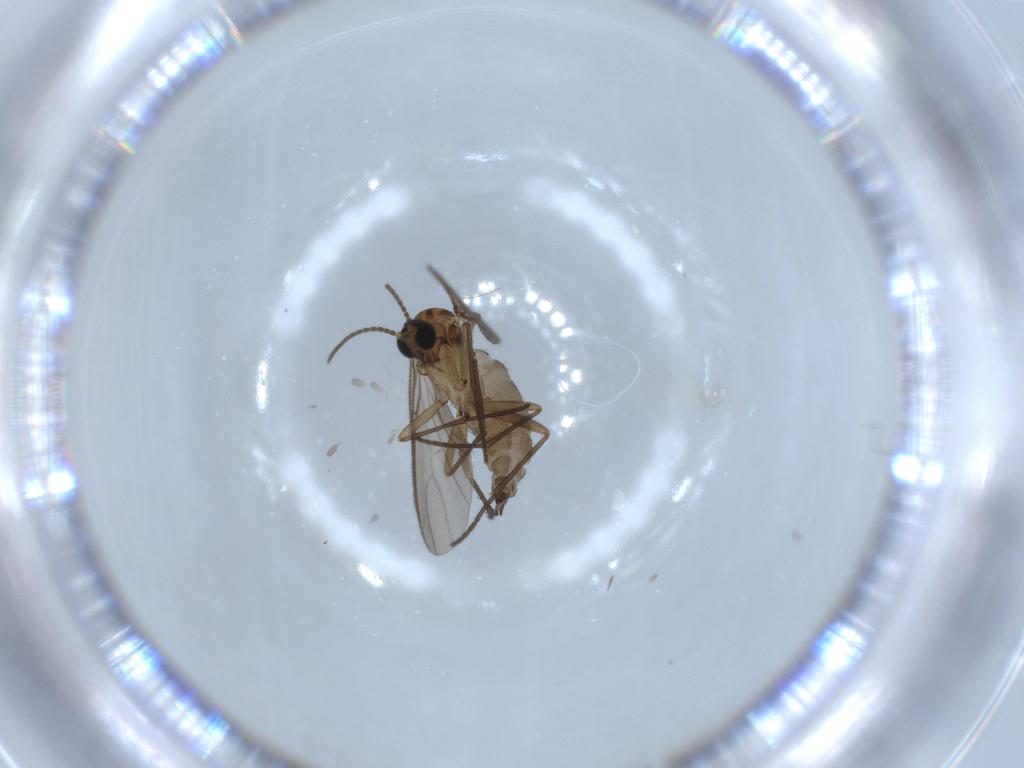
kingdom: Animalia
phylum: Arthropoda
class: Insecta
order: Diptera
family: Sciaridae
